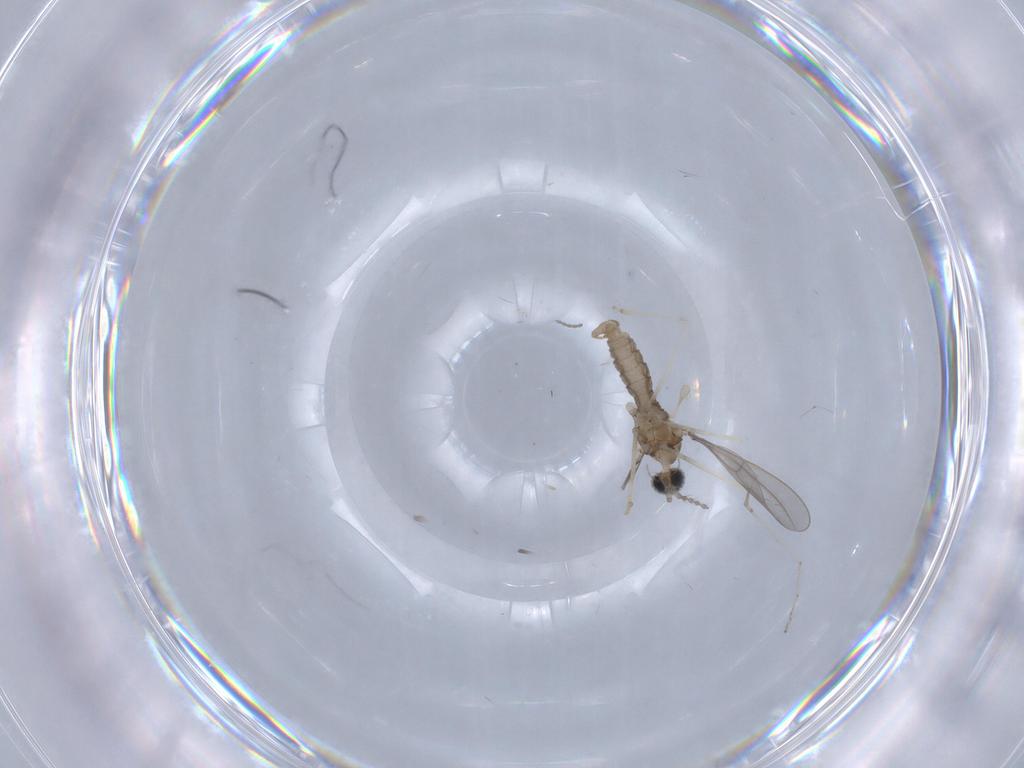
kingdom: Animalia
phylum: Arthropoda
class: Insecta
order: Diptera
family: Cecidomyiidae
